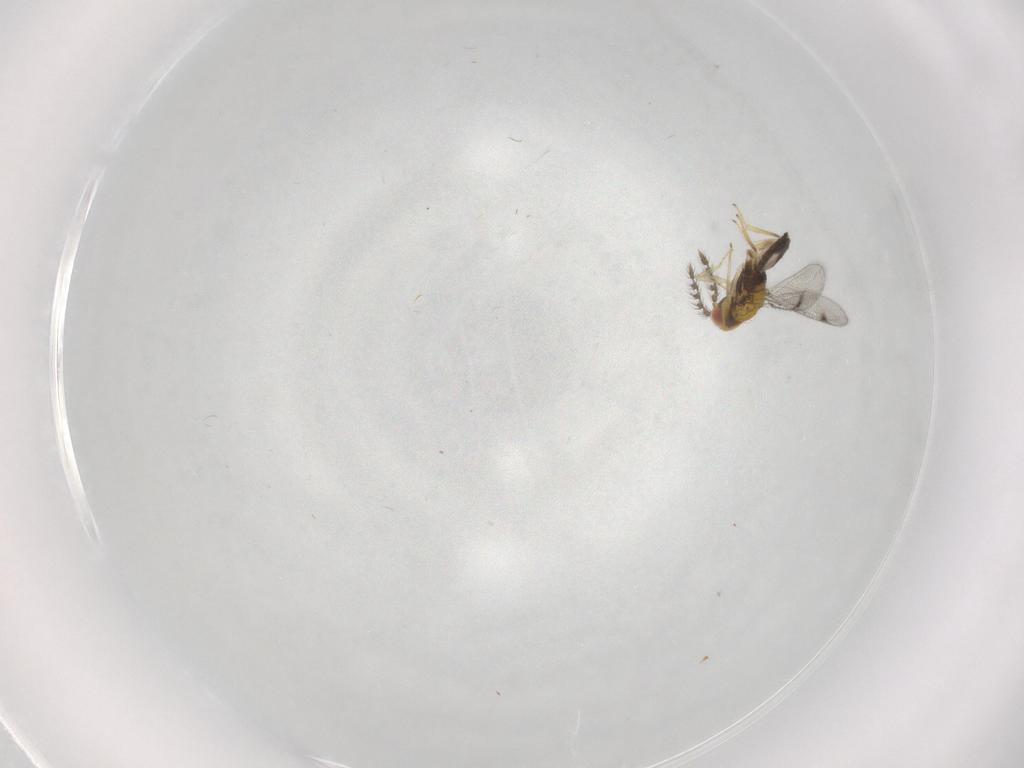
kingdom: Animalia
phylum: Arthropoda
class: Insecta
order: Hymenoptera
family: Eulophidae
